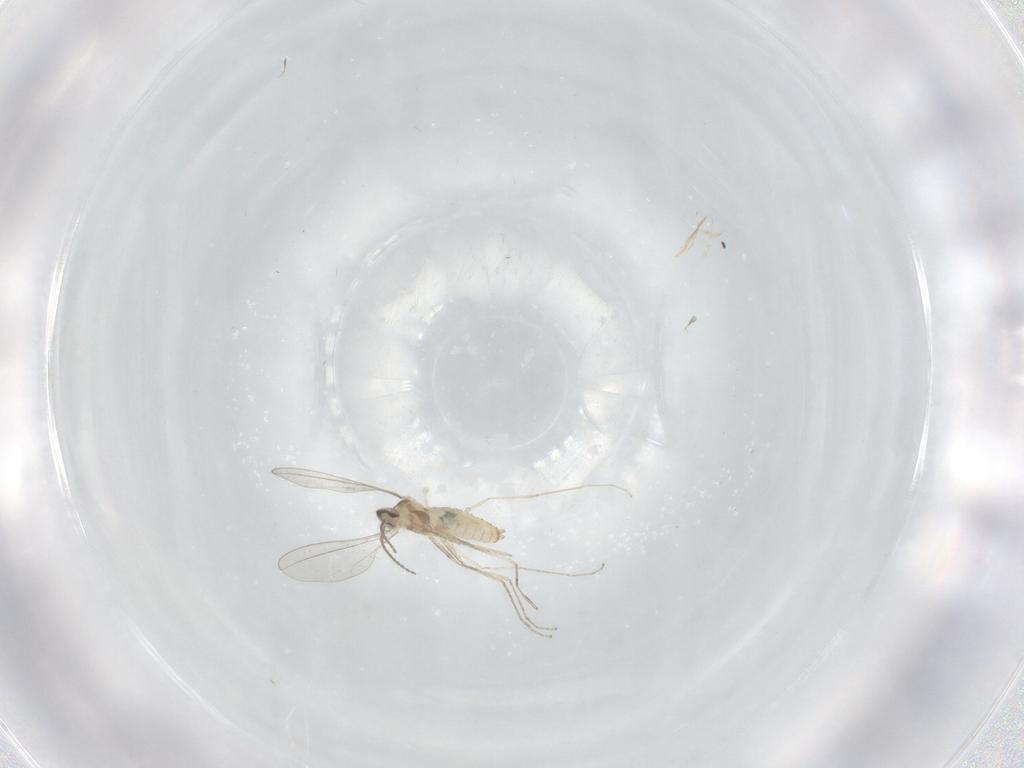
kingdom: Animalia
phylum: Arthropoda
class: Insecta
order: Diptera
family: Cecidomyiidae
